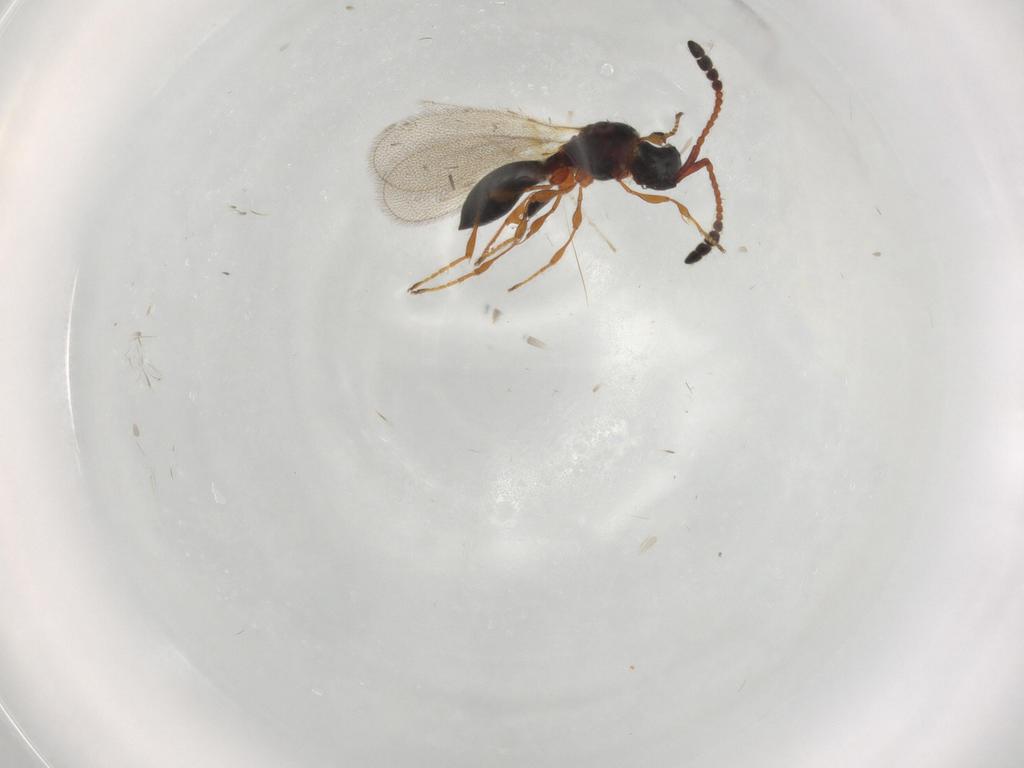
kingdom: Animalia
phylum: Arthropoda
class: Insecta
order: Hymenoptera
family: Diapriidae
